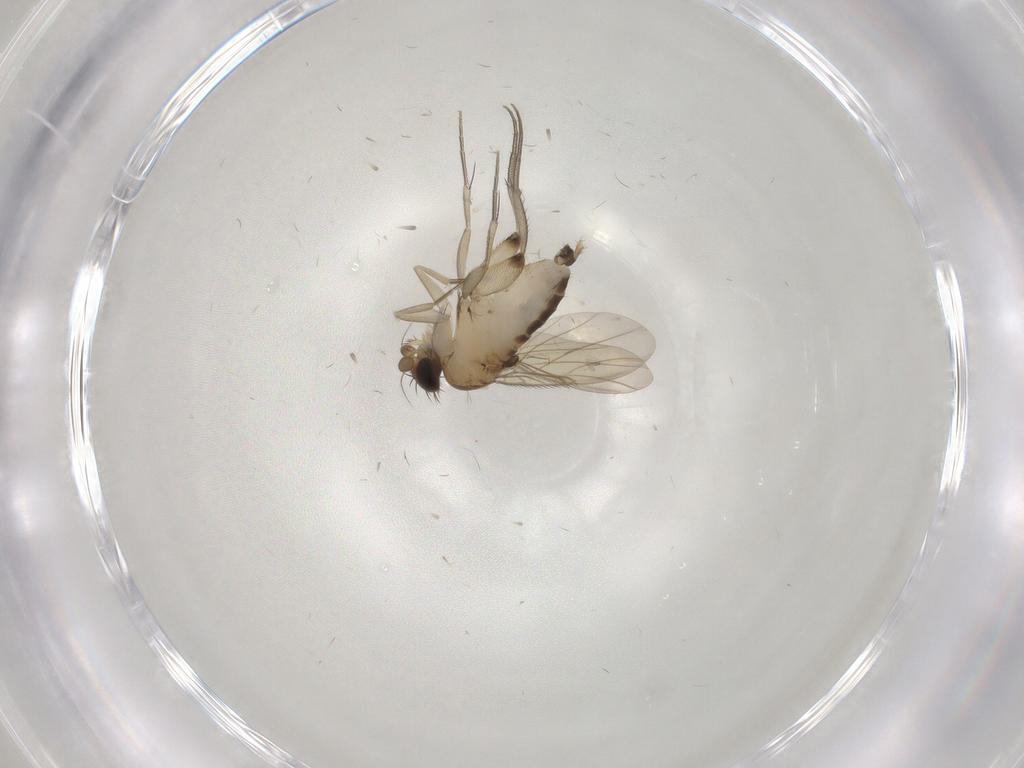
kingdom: Animalia
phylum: Arthropoda
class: Insecta
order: Diptera
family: Phoridae
